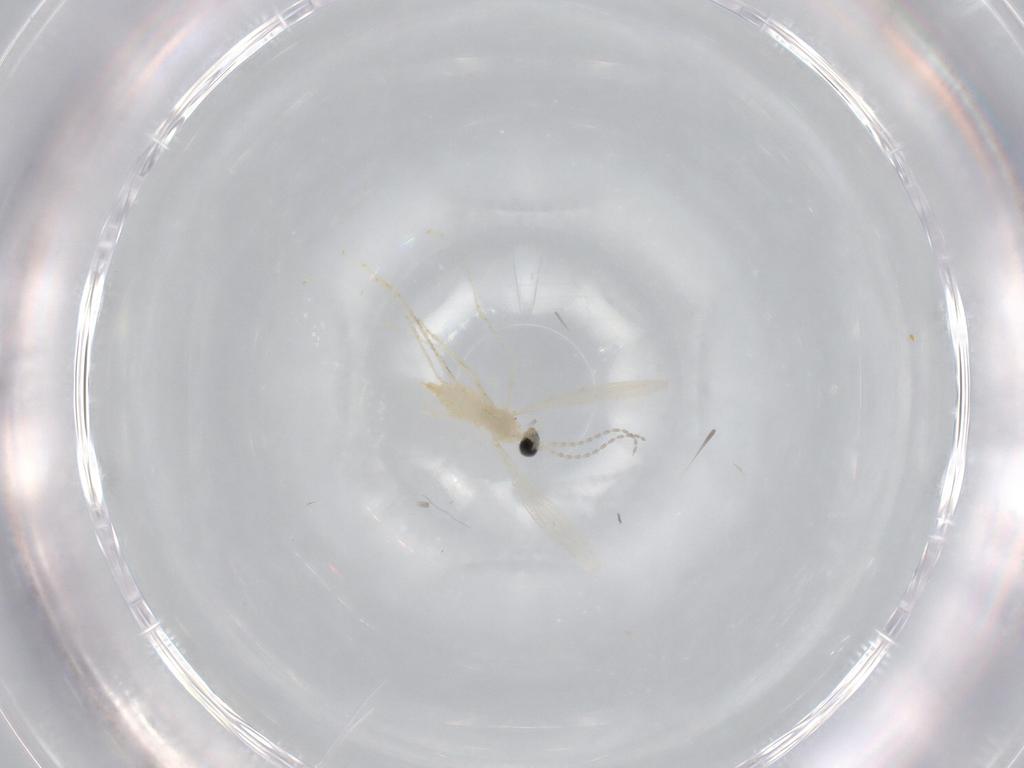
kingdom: Animalia
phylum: Arthropoda
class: Insecta
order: Diptera
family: Cecidomyiidae
